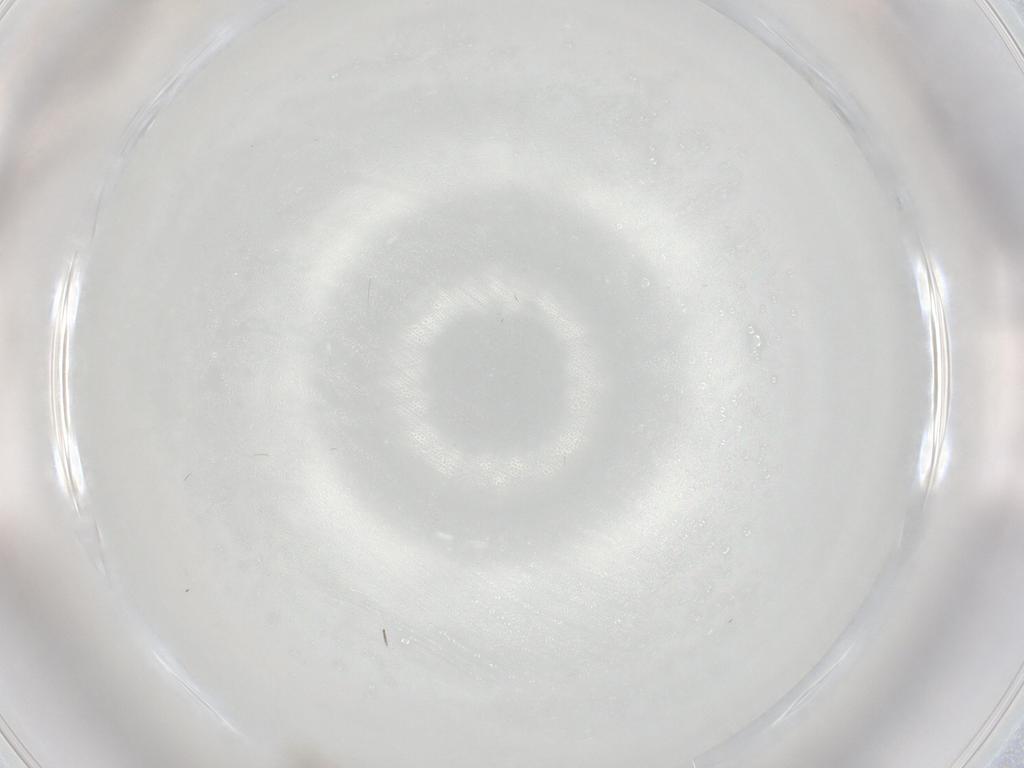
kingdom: Animalia
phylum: Arthropoda
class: Insecta
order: Diptera
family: Cecidomyiidae
